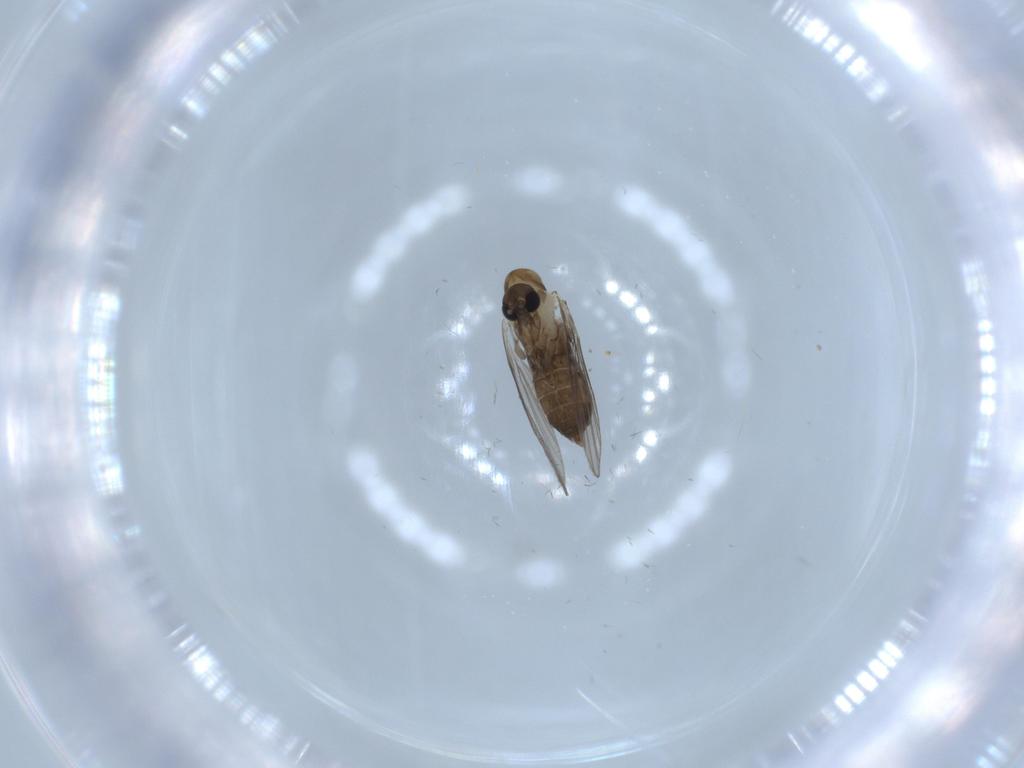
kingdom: Animalia
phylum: Arthropoda
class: Insecta
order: Diptera
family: Psychodidae
